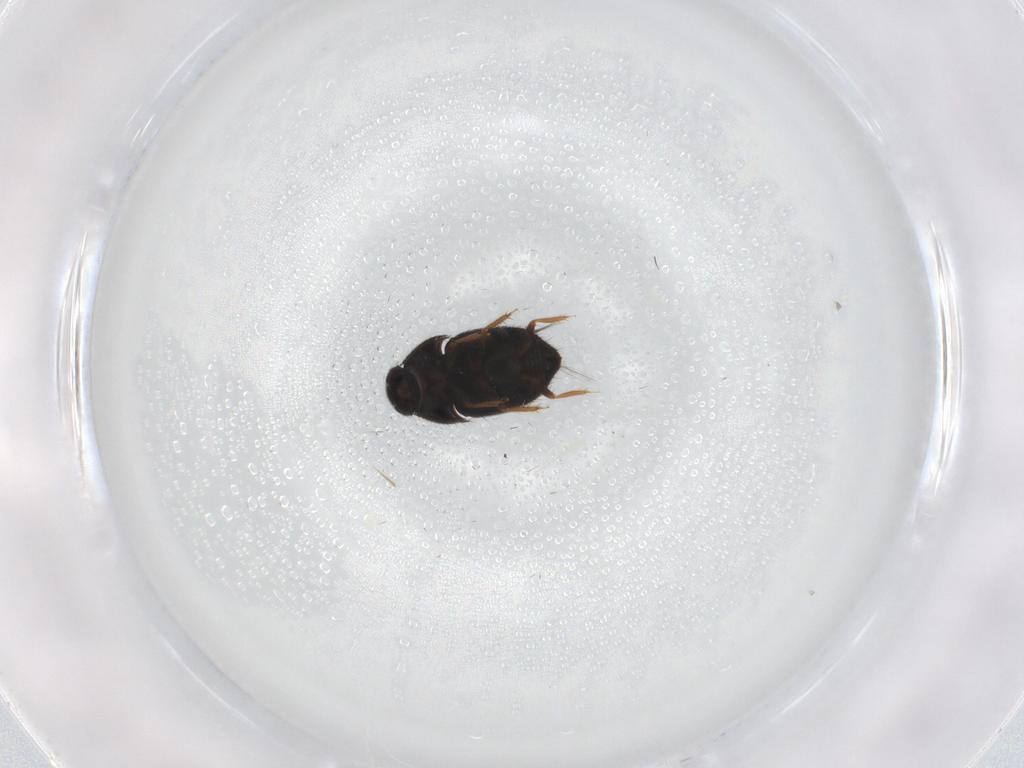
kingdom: Animalia
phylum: Arthropoda
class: Insecta
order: Coleoptera
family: Ptiliidae
